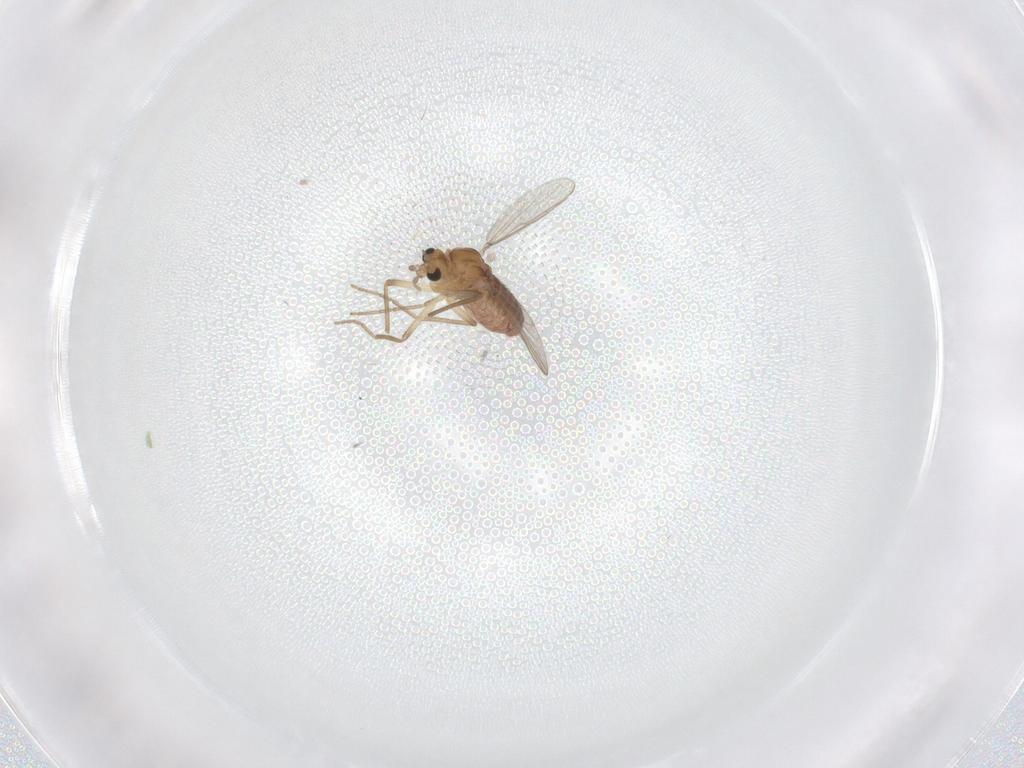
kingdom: Animalia
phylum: Arthropoda
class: Insecta
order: Diptera
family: Chironomidae
